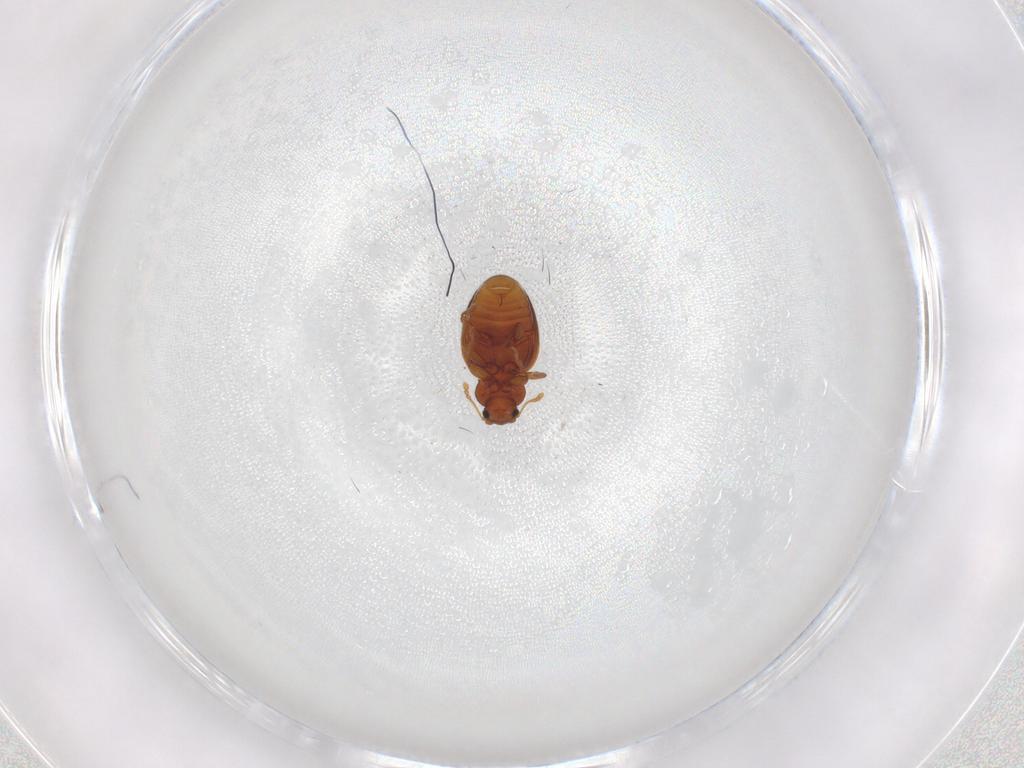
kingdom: Animalia
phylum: Arthropoda
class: Insecta
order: Coleoptera
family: Latridiidae
